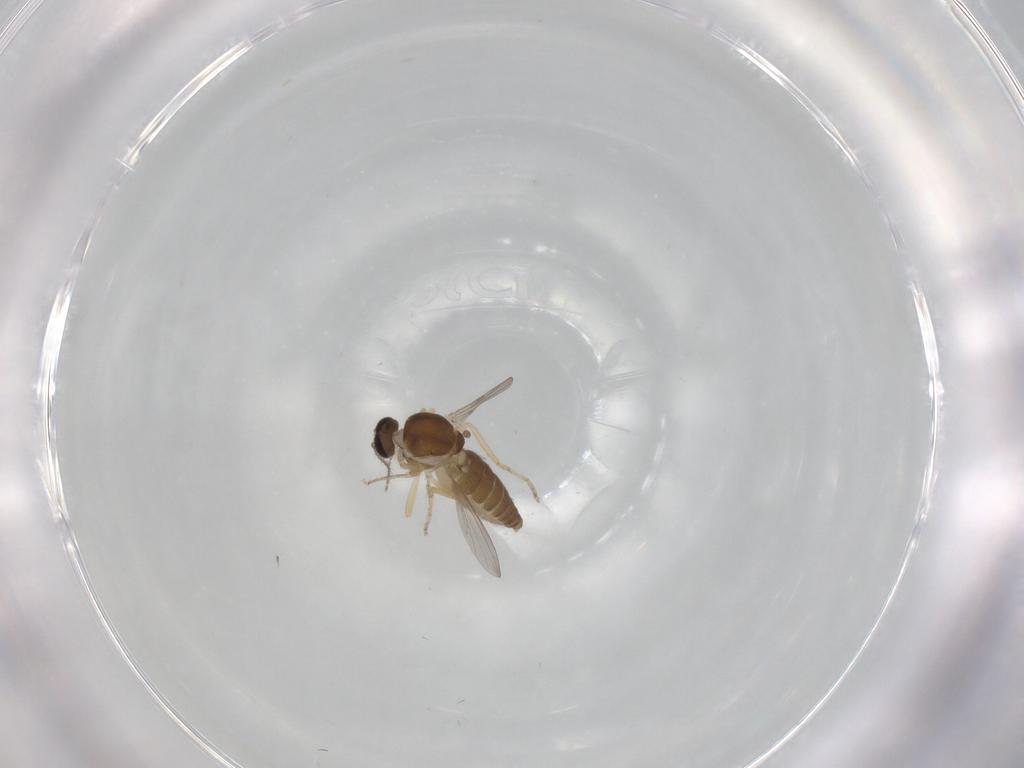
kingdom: Animalia
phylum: Arthropoda
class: Insecta
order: Diptera
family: Ceratopogonidae
